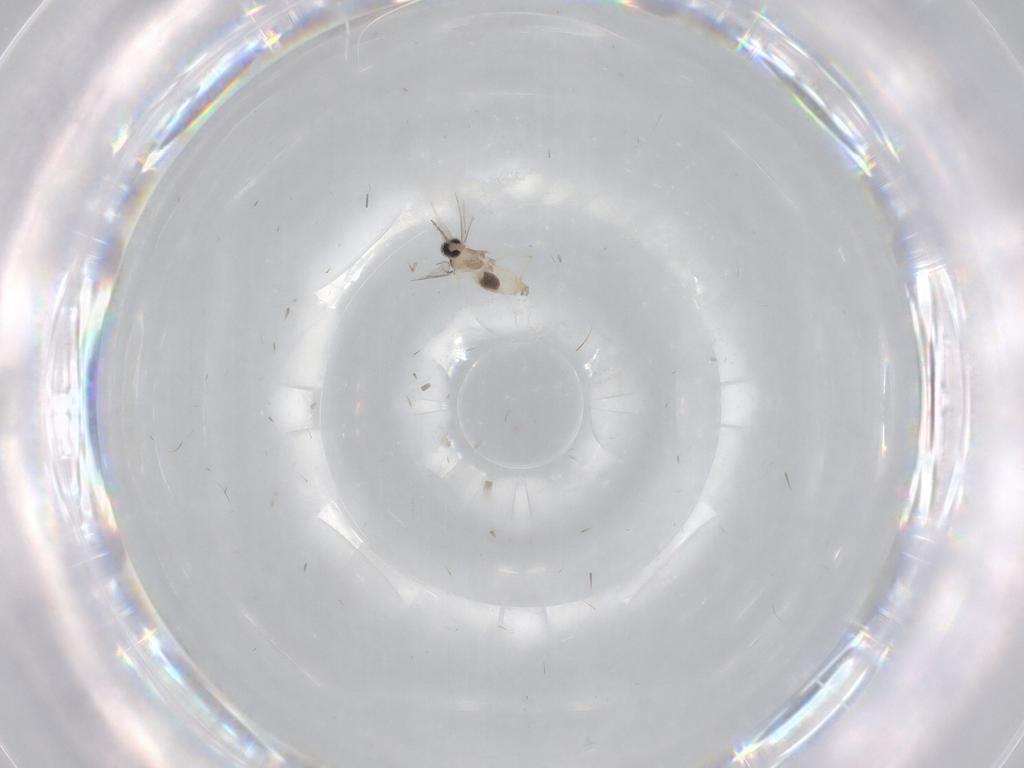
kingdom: Animalia
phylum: Arthropoda
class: Insecta
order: Diptera
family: Cecidomyiidae
